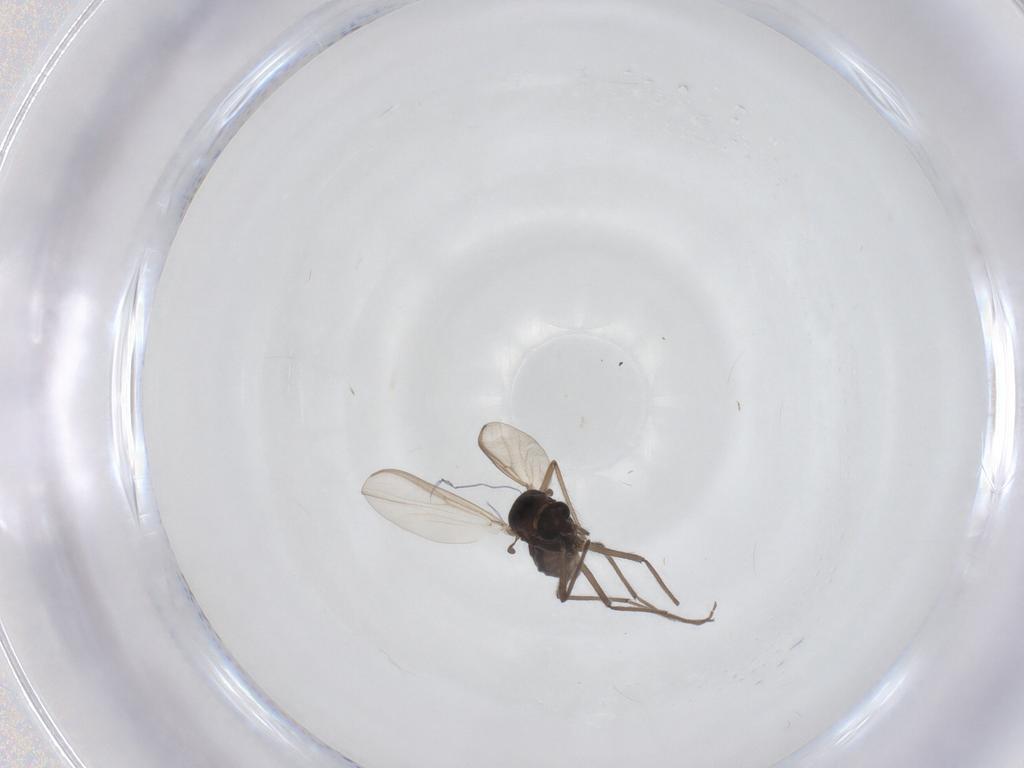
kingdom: Animalia
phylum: Arthropoda
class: Insecta
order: Diptera
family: Chironomidae
